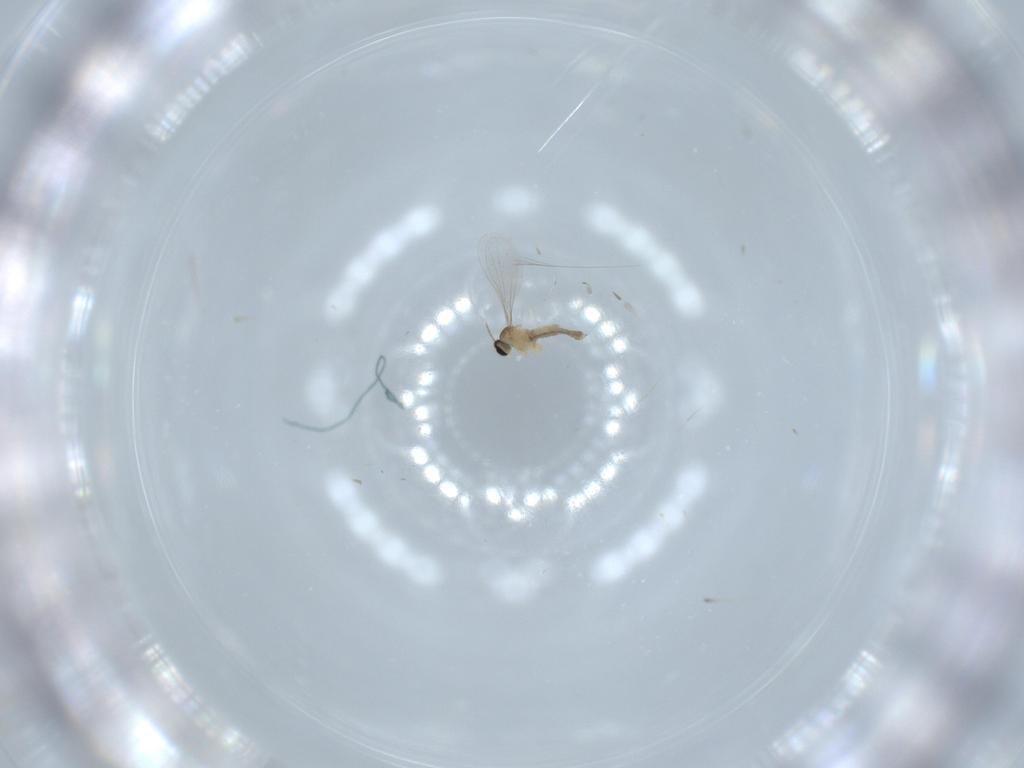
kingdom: Animalia
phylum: Arthropoda
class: Insecta
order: Diptera
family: Cecidomyiidae
